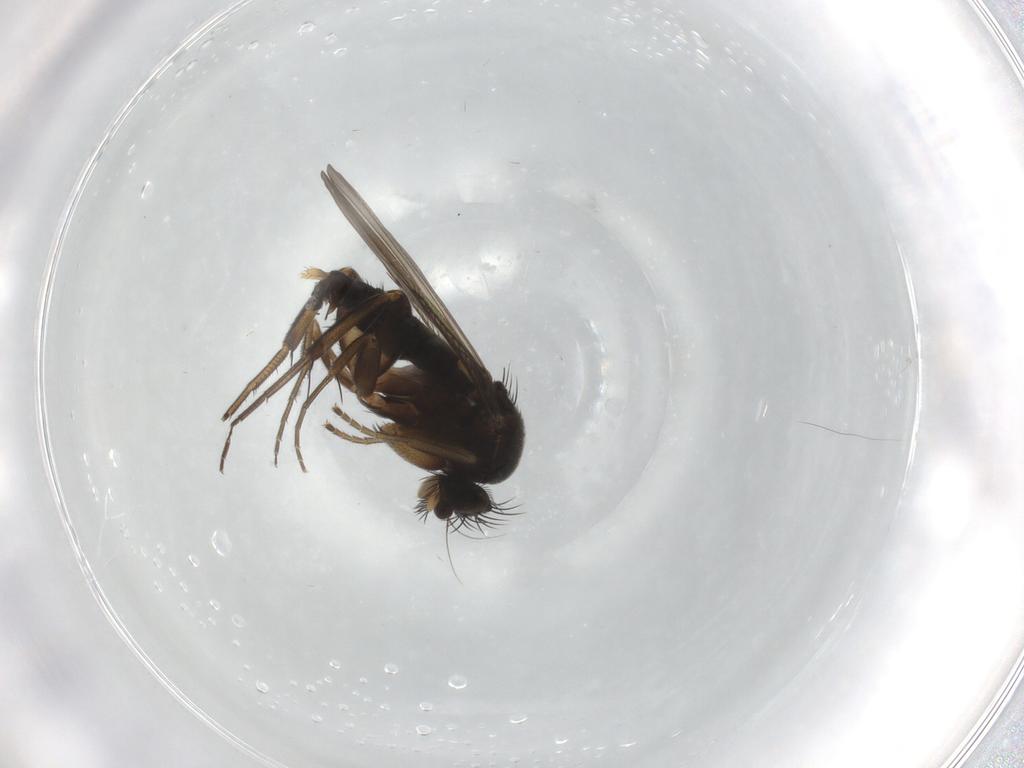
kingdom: Animalia
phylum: Arthropoda
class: Insecta
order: Diptera
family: Phoridae
